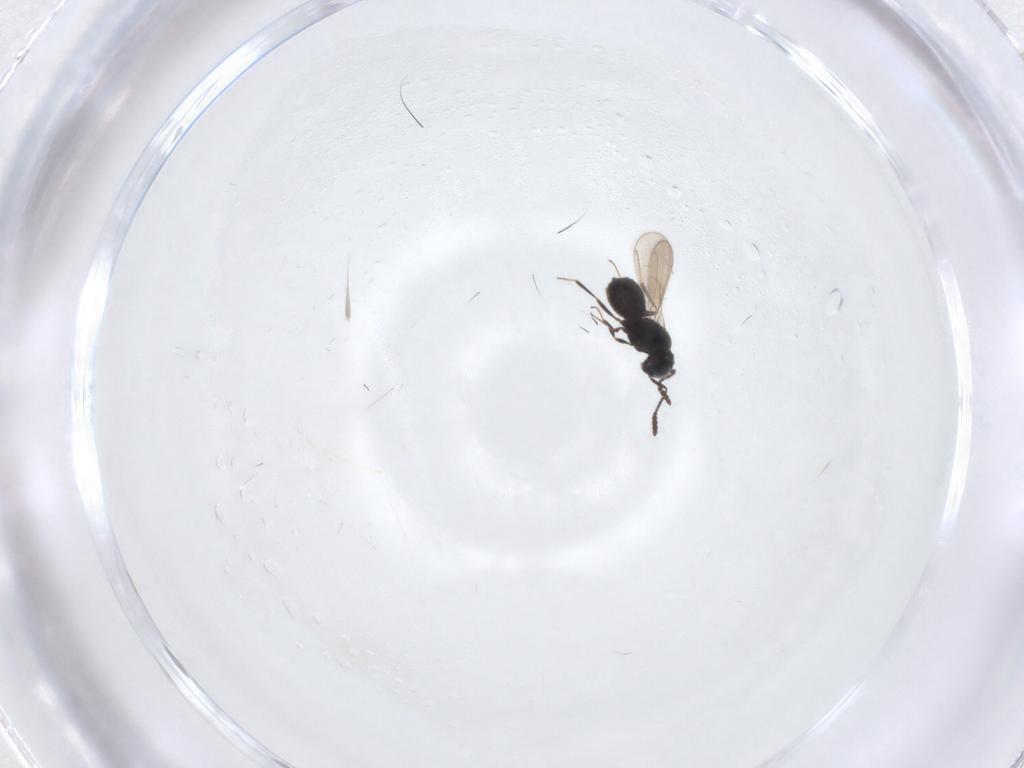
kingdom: Animalia
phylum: Arthropoda
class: Insecta
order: Hymenoptera
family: Scelionidae
